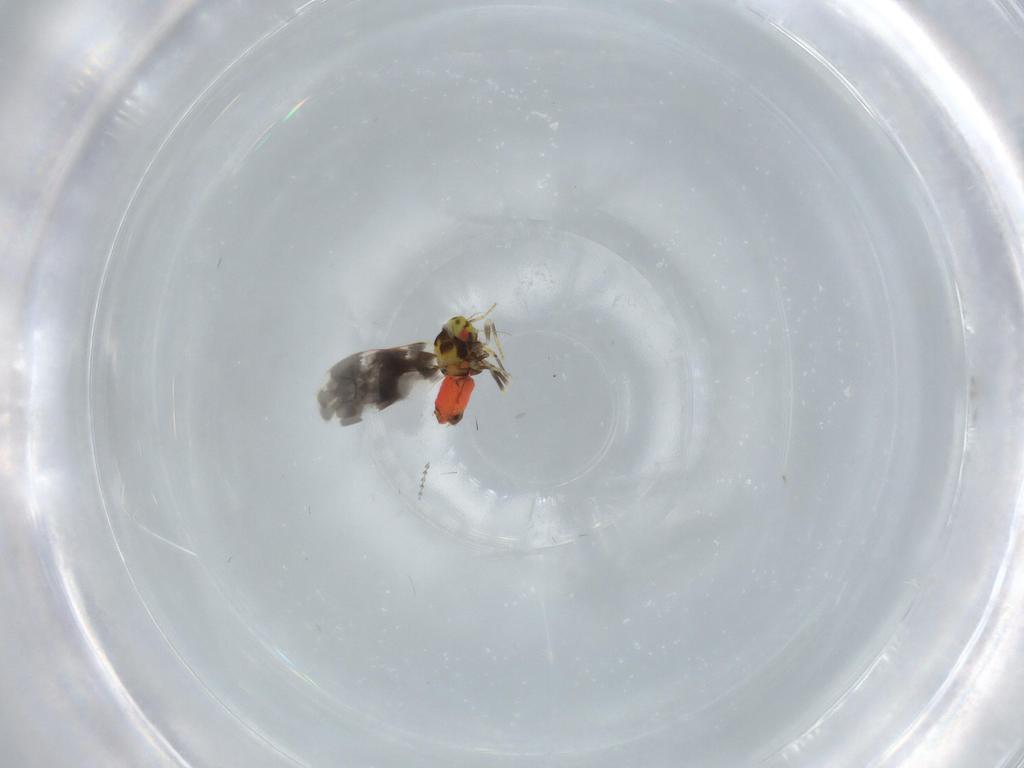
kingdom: Animalia
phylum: Arthropoda
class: Insecta
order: Hemiptera
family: Aleyrodidae
